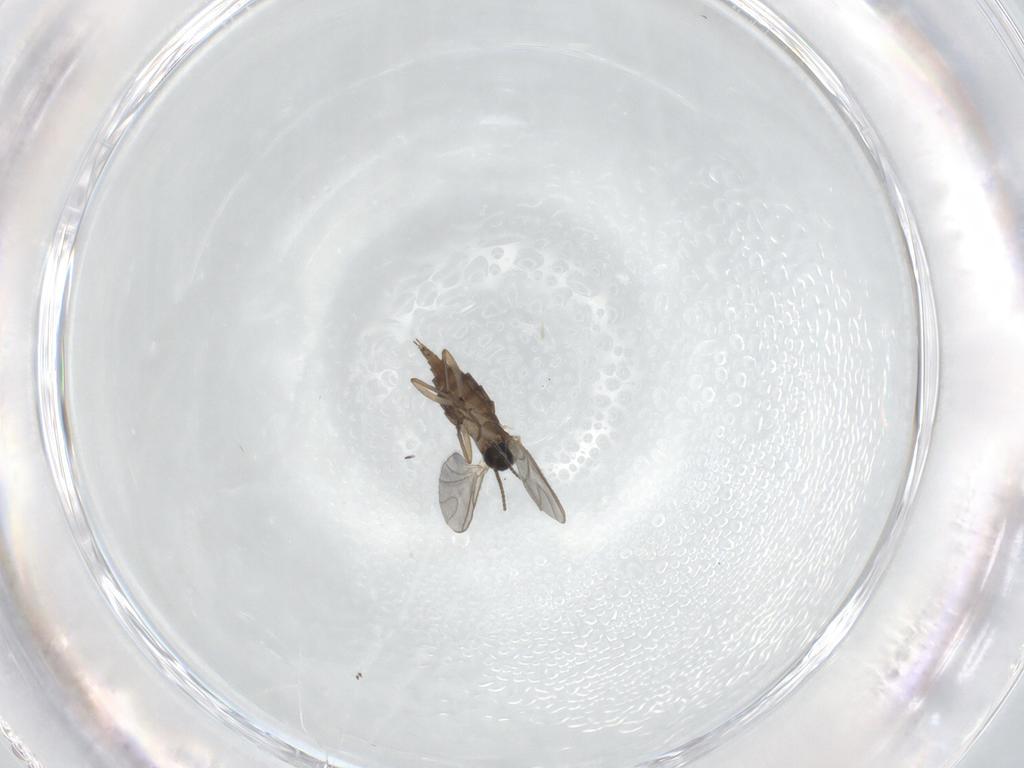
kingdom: Animalia
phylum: Arthropoda
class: Insecta
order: Diptera
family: Sciaridae
